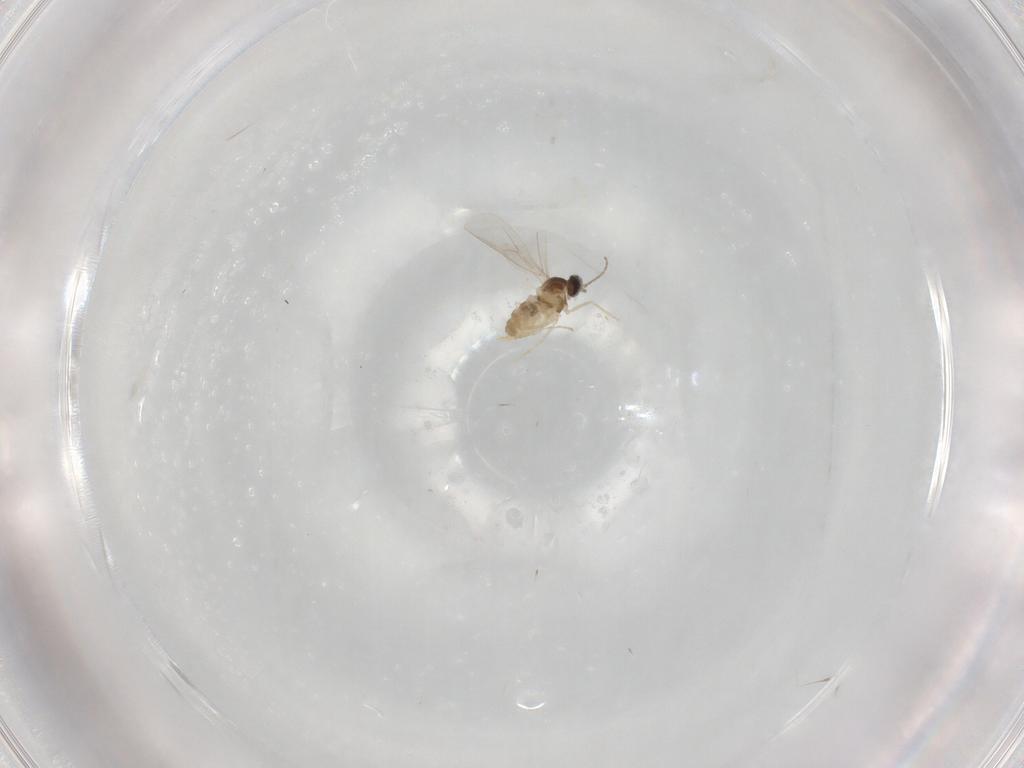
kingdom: Animalia
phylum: Arthropoda
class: Insecta
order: Diptera
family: Cecidomyiidae
